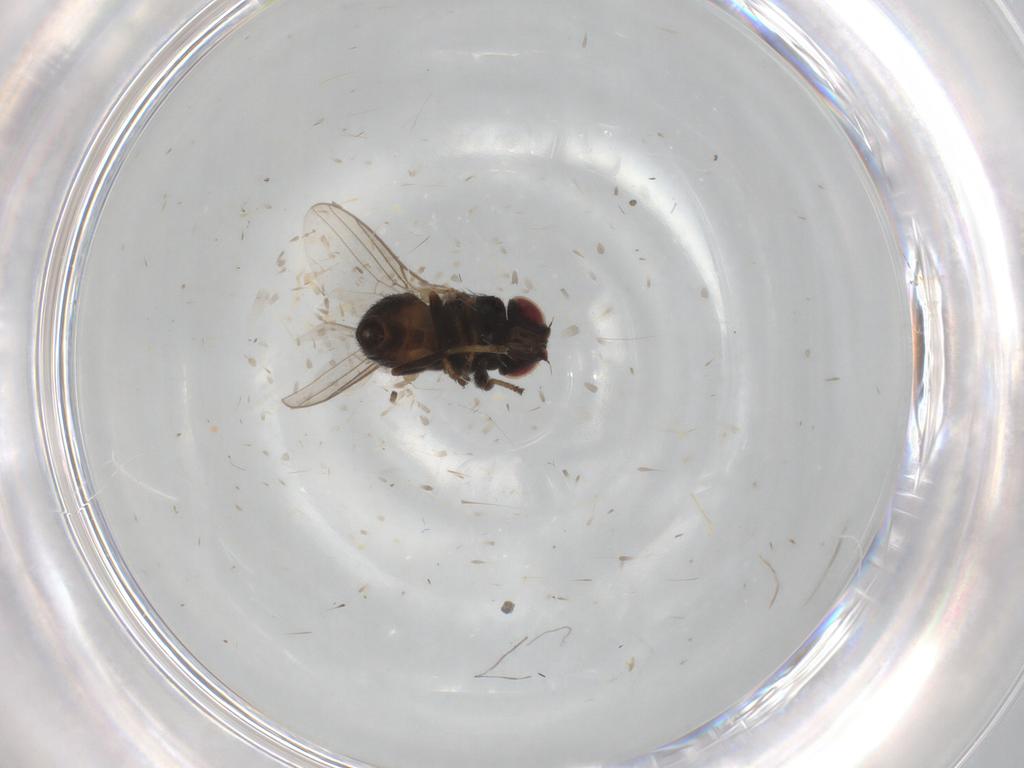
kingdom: Animalia
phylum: Arthropoda
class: Insecta
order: Diptera
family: Chloropidae
